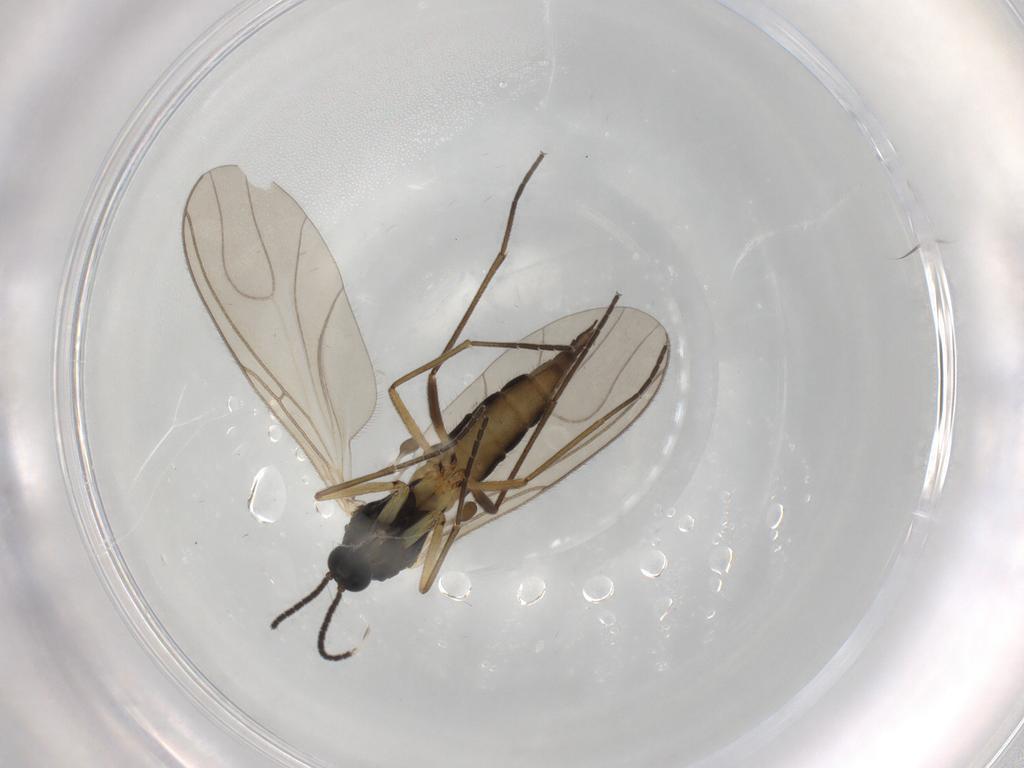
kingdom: Animalia
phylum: Arthropoda
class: Insecta
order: Diptera
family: Sciaridae
